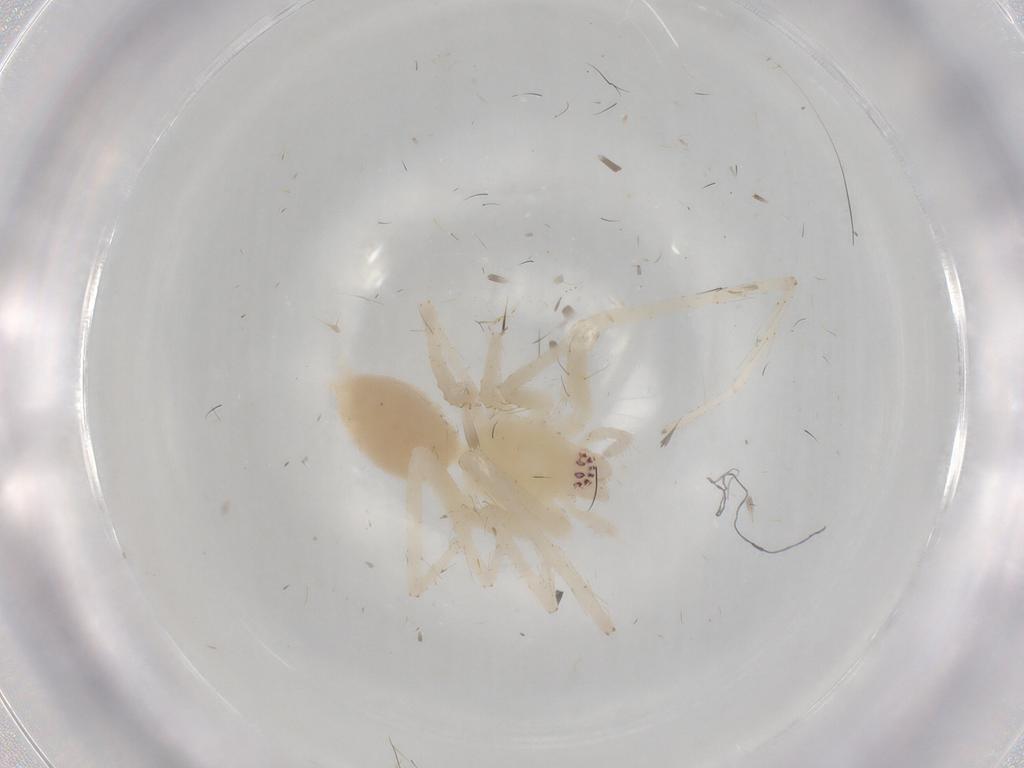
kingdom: Animalia
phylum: Arthropoda
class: Arachnida
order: Araneae
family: Anyphaenidae
